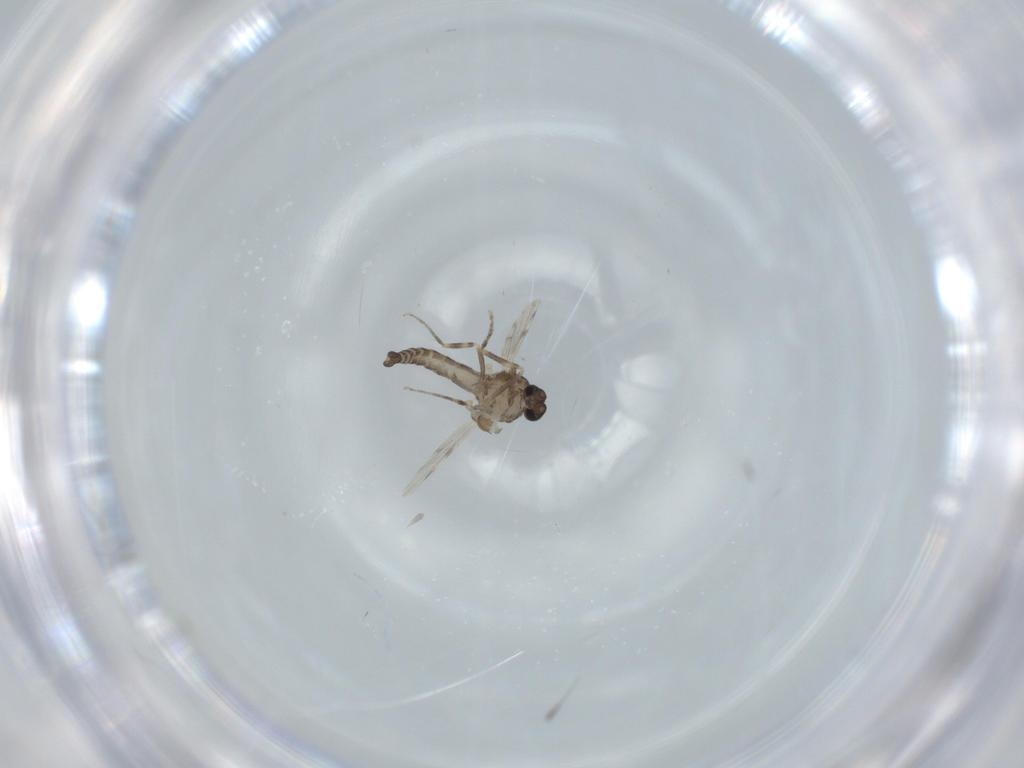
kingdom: Animalia
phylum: Arthropoda
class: Insecta
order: Diptera
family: Ceratopogonidae
